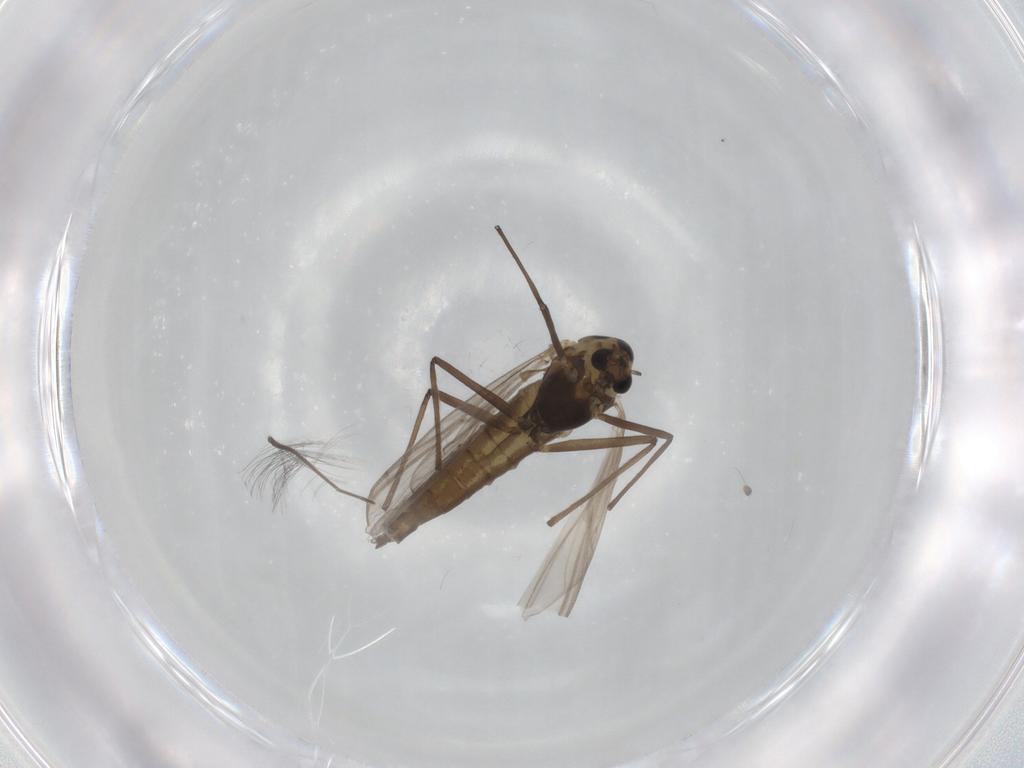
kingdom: Animalia
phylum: Arthropoda
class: Insecta
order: Diptera
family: Chironomidae
